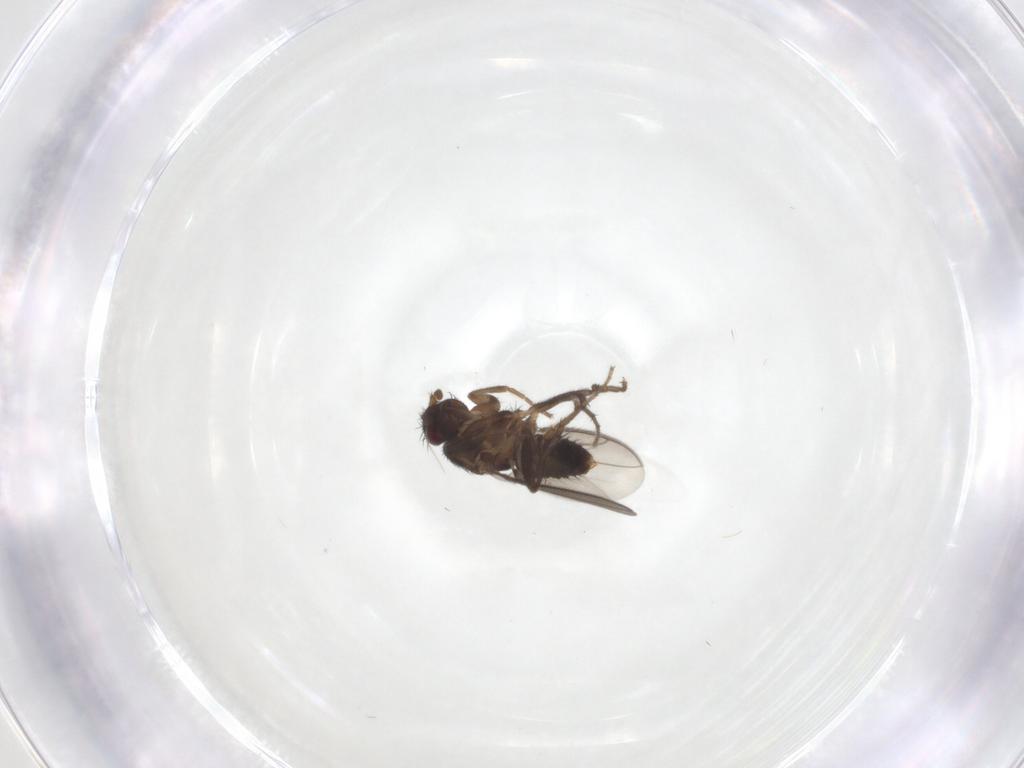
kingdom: Animalia
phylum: Arthropoda
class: Insecta
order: Diptera
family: Sphaeroceridae
